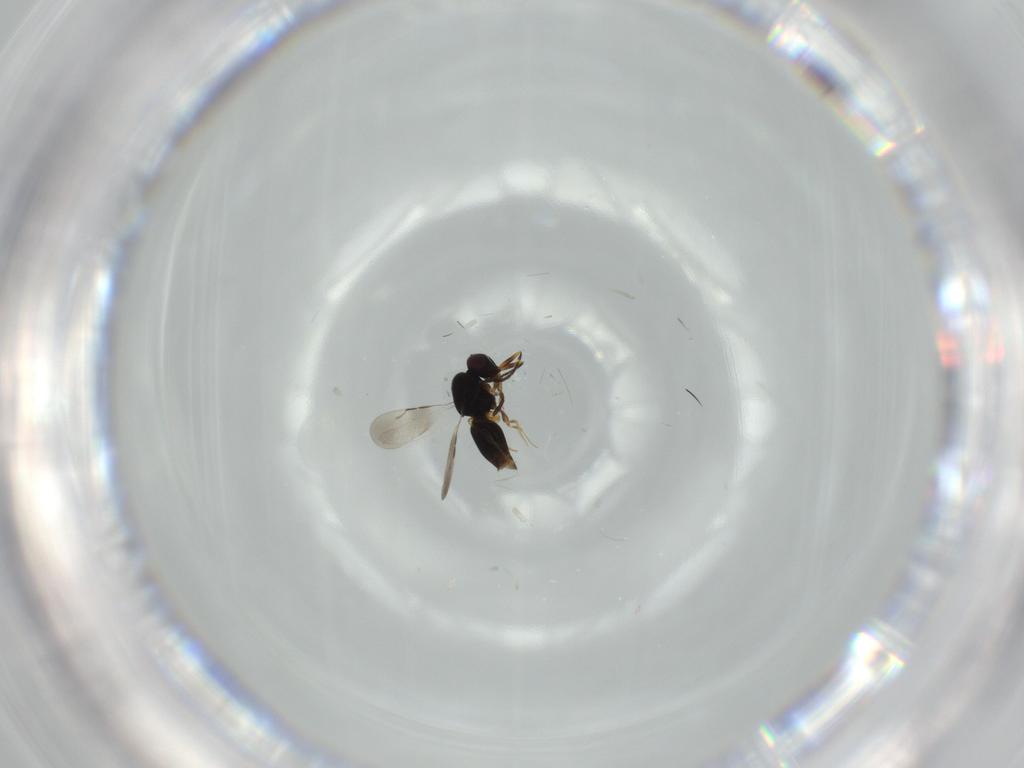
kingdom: Animalia
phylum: Arthropoda
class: Insecta
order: Hymenoptera
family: Ceraphronidae
